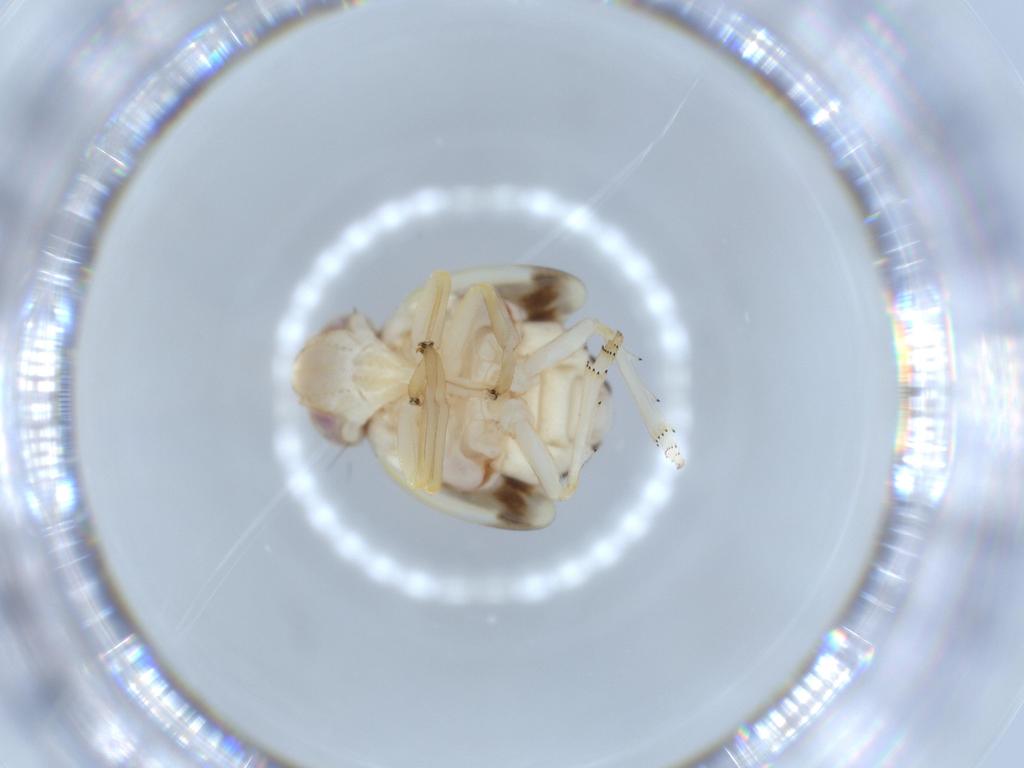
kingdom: Animalia
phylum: Arthropoda
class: Insecta
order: Hemiptera
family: Nogodinidae
